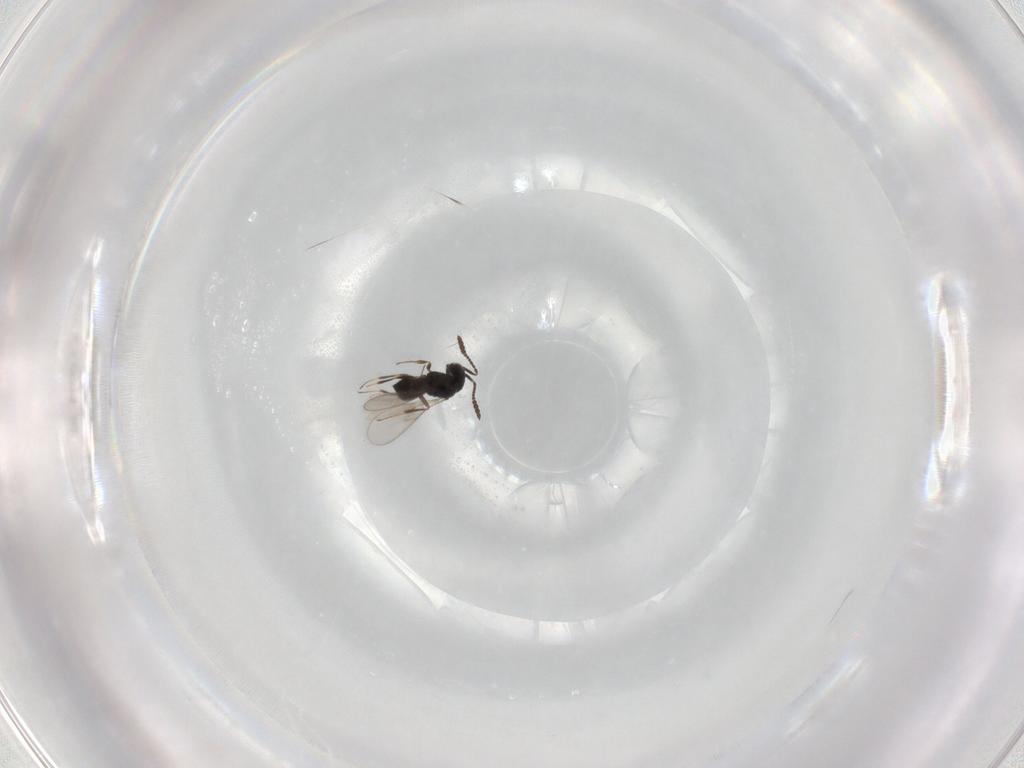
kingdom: Animalia
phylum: Arthropoda
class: Insecta
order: Hymenoptera
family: Scelionidae
